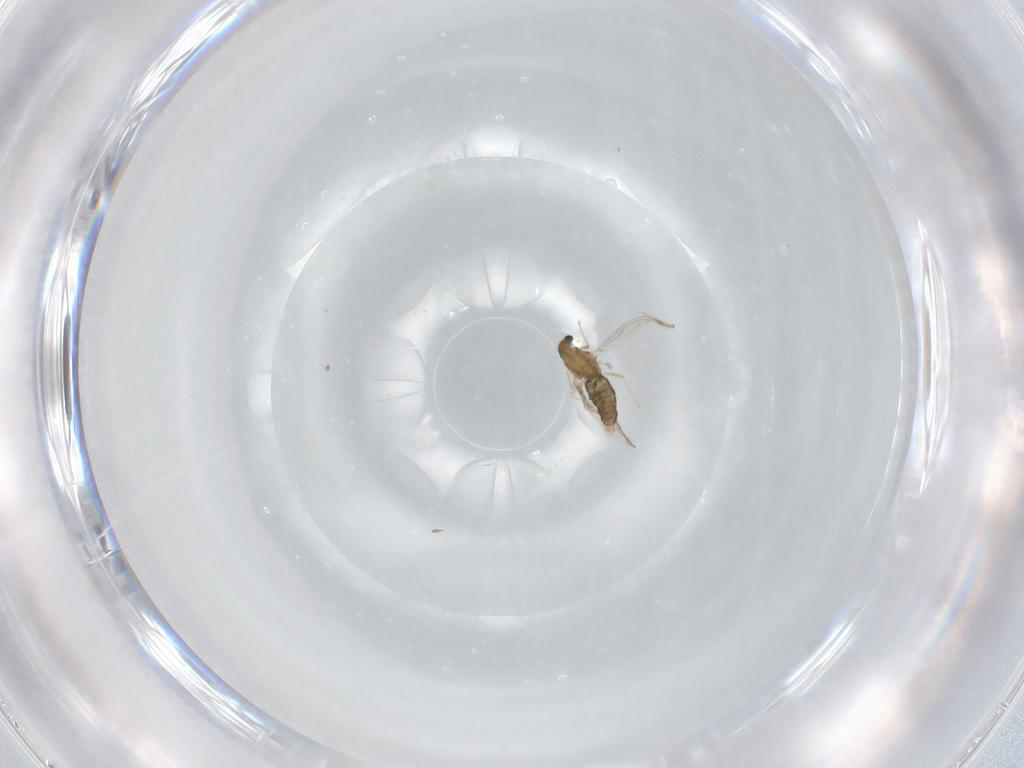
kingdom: Animalia
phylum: Arthropoda
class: Insecta
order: Diptera
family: Chironomidae
